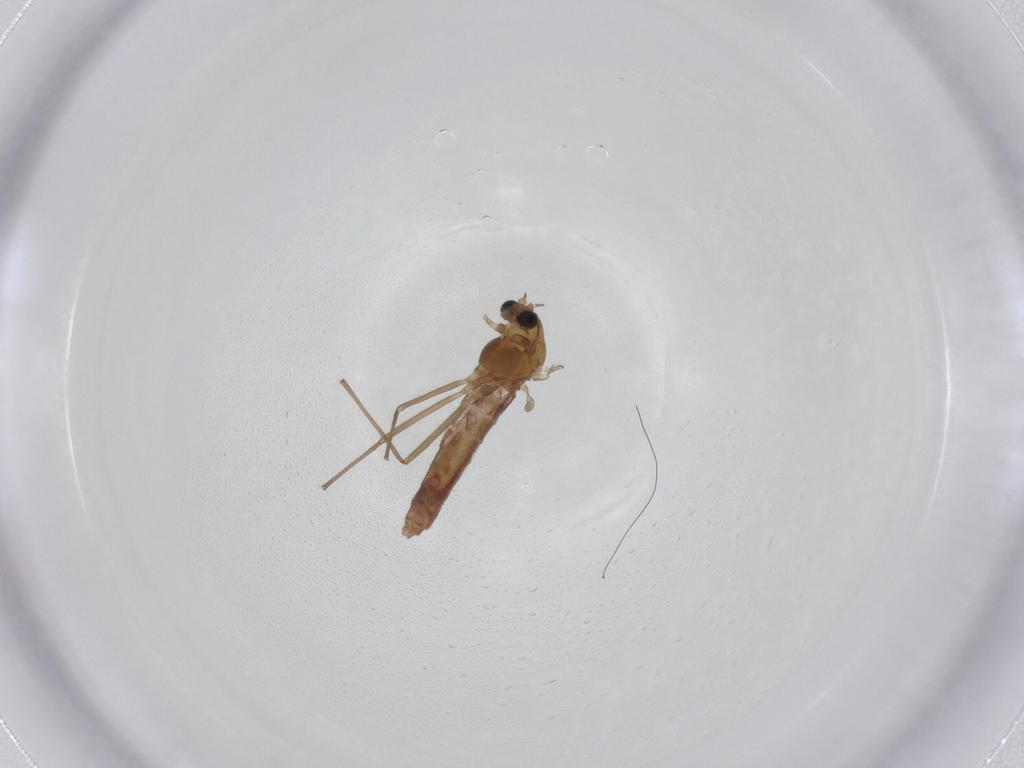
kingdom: Animalia
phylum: Arthropoda
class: Insecta
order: Diptera
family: Chironomidae
